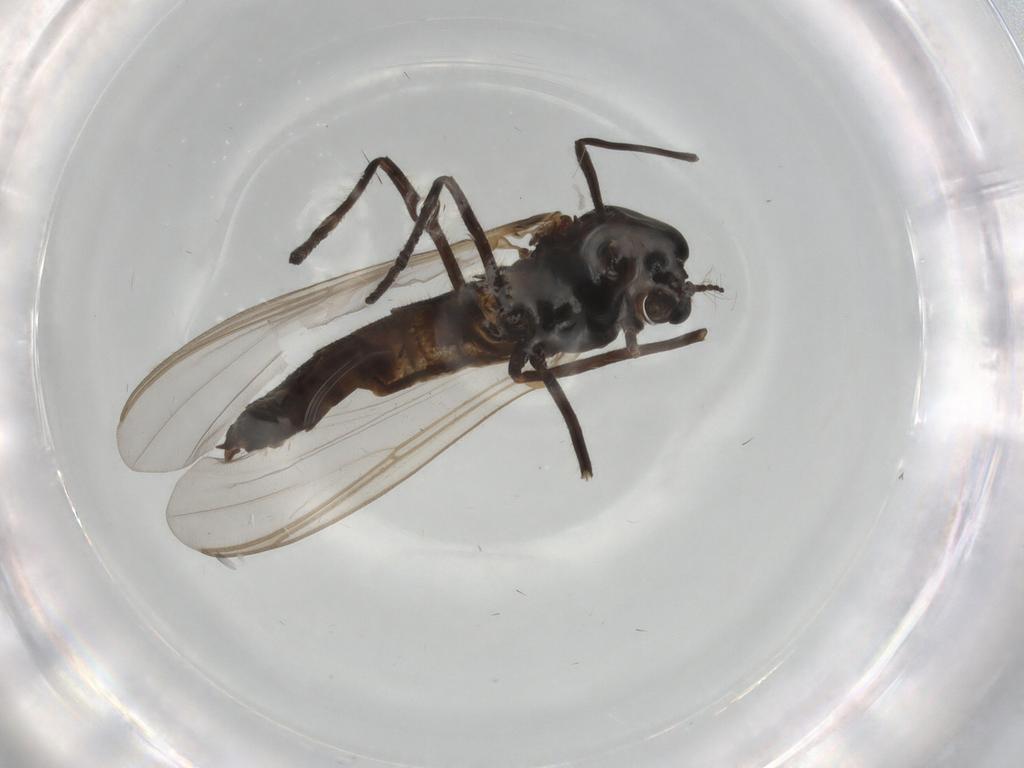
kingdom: Animalia
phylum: Arthropoda
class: Insecta
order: Diptera
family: Chironomidae
